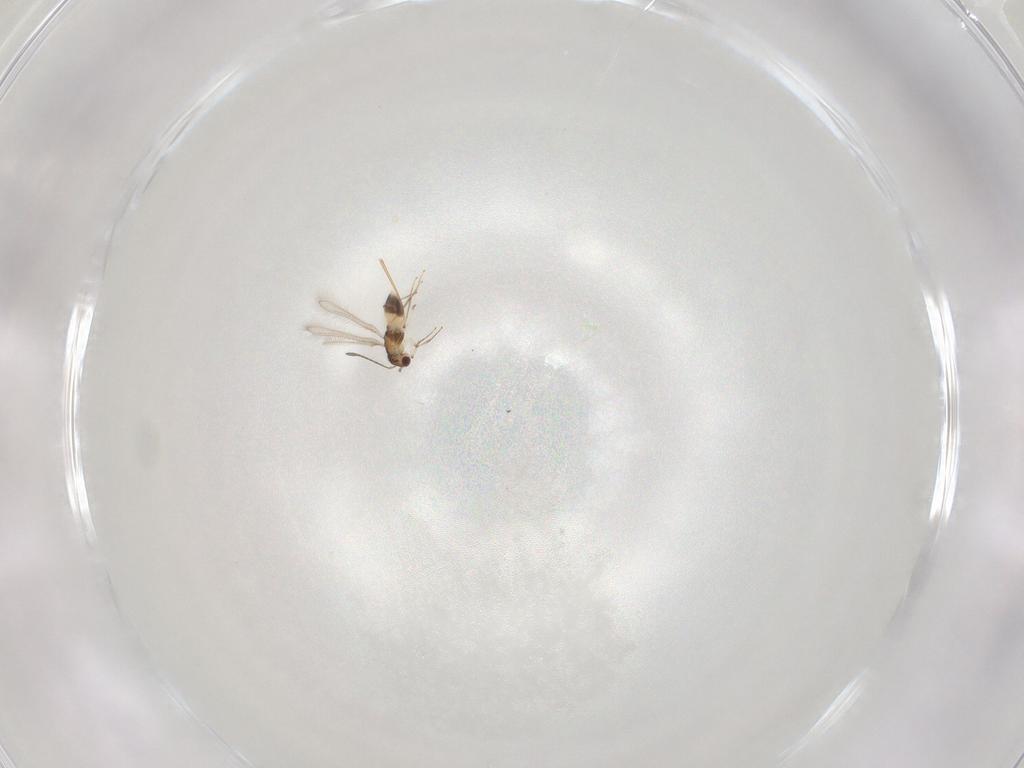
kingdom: Animalia
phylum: Arthropoda
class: Insecta
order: Hymenoptera
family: Mymaridae
